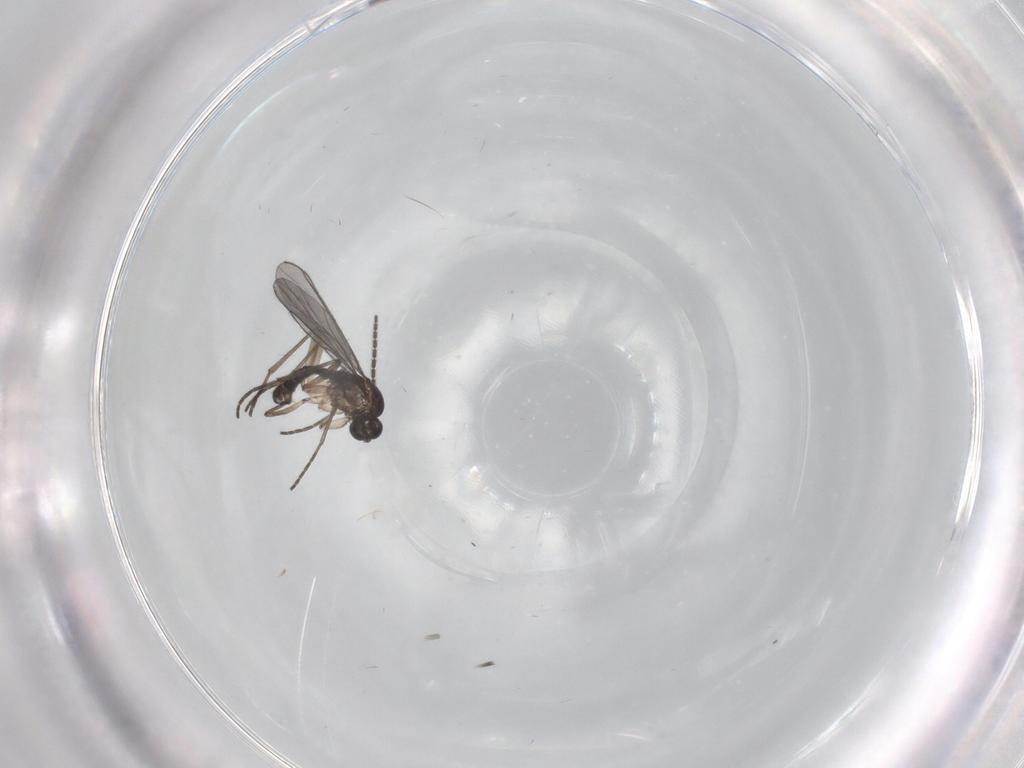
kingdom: Animalia
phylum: Arthropoda
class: Insecta
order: Diptera
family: Sciaridae
